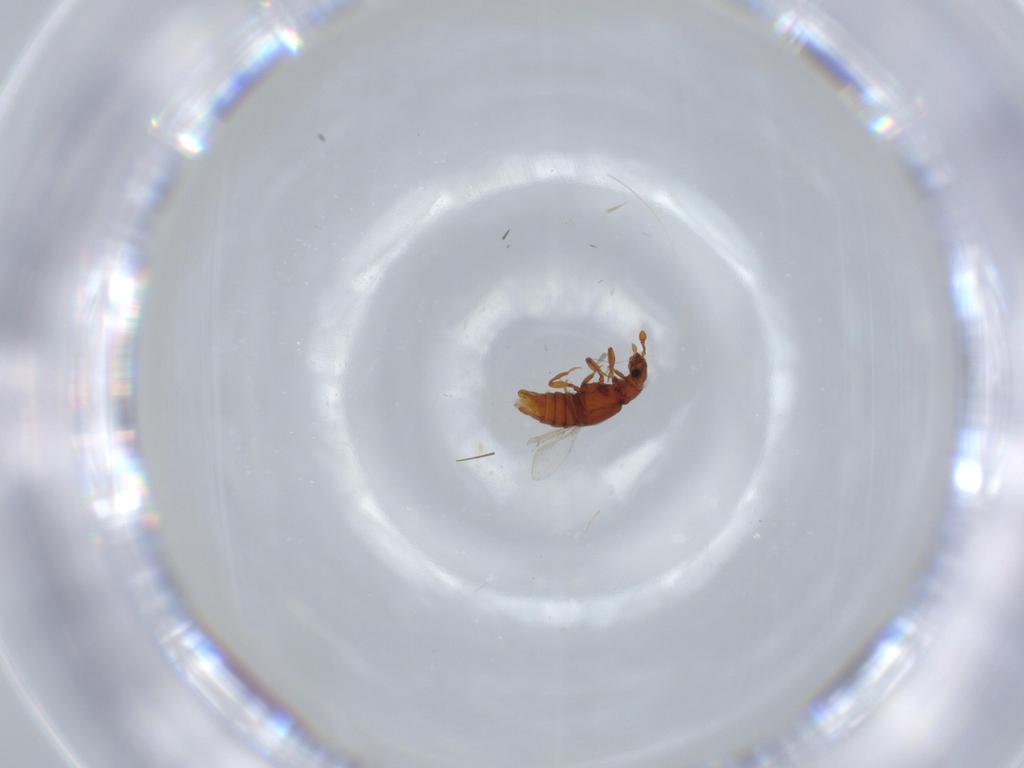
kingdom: Animalia
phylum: Arthropoda
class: Insecta
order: Coleoptera
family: Staphylinidae
